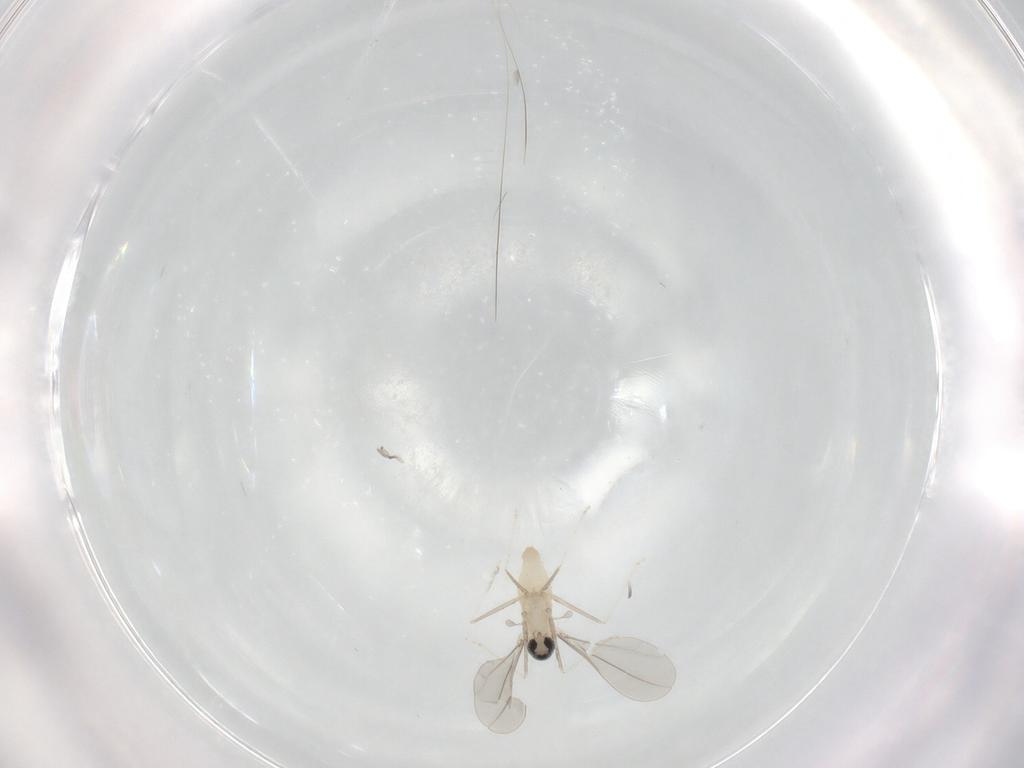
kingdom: Animalia
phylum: Arthropoda
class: Insecta
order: Diptera
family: Cecidomyiidae
